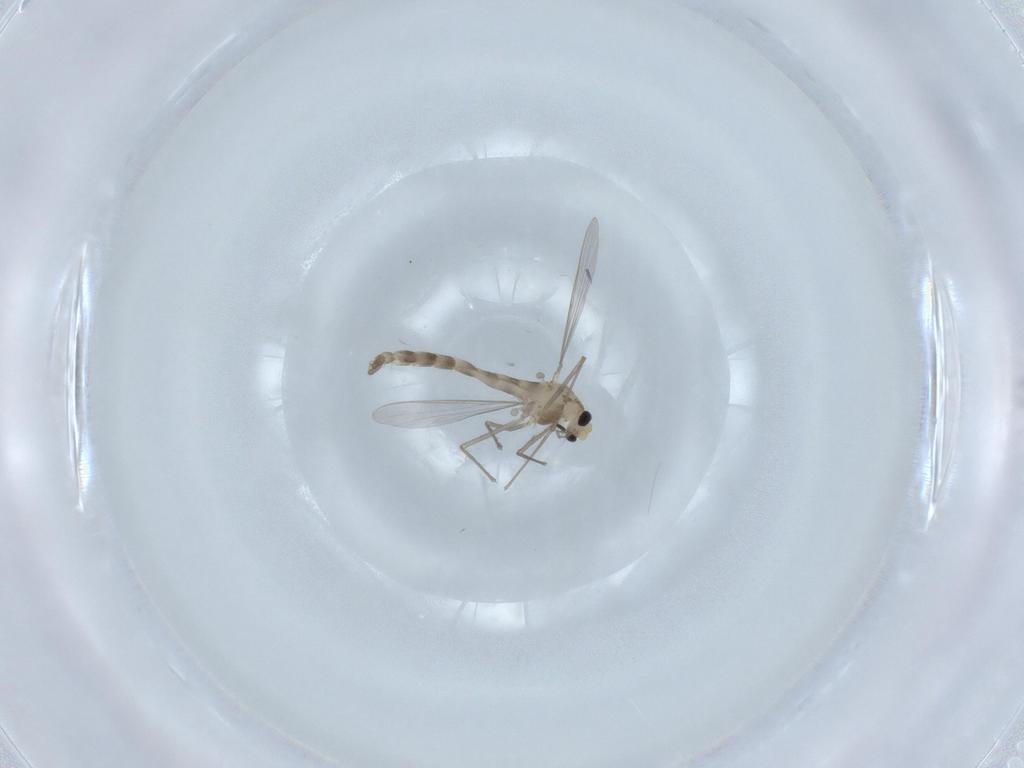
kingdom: Animalia
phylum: Arthropoda
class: Insecta
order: Diptera
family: Chironomidae
